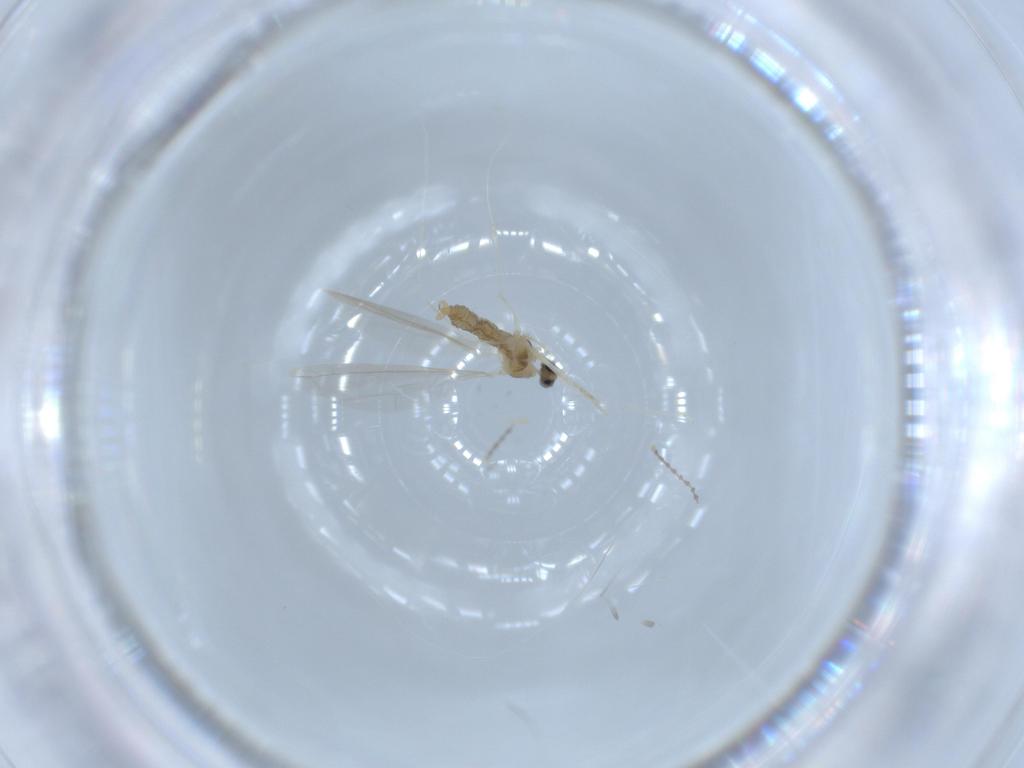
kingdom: Animalia
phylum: Arthropoda
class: Insecta
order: Diptera
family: Cecidomyiidae
